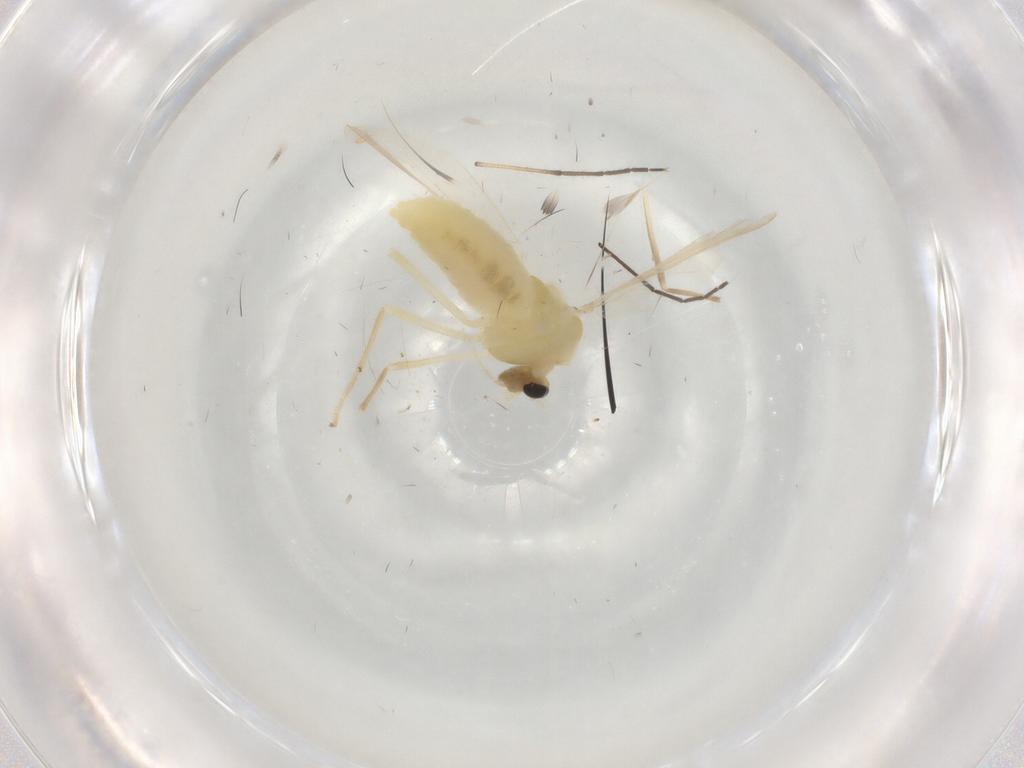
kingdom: Animalia
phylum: Arthropoda
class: Insecta
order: Diptera
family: Chironomidae
